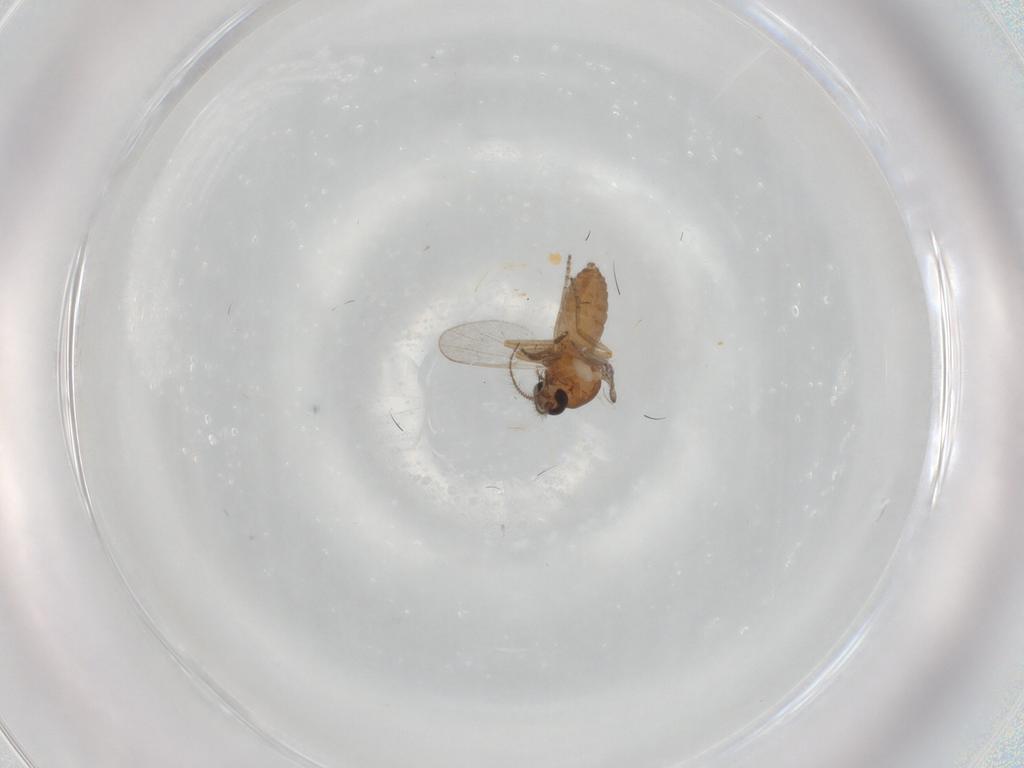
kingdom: Animalia
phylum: Arthropoda
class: Insecta
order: Diptera
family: Ceratopogonidae
